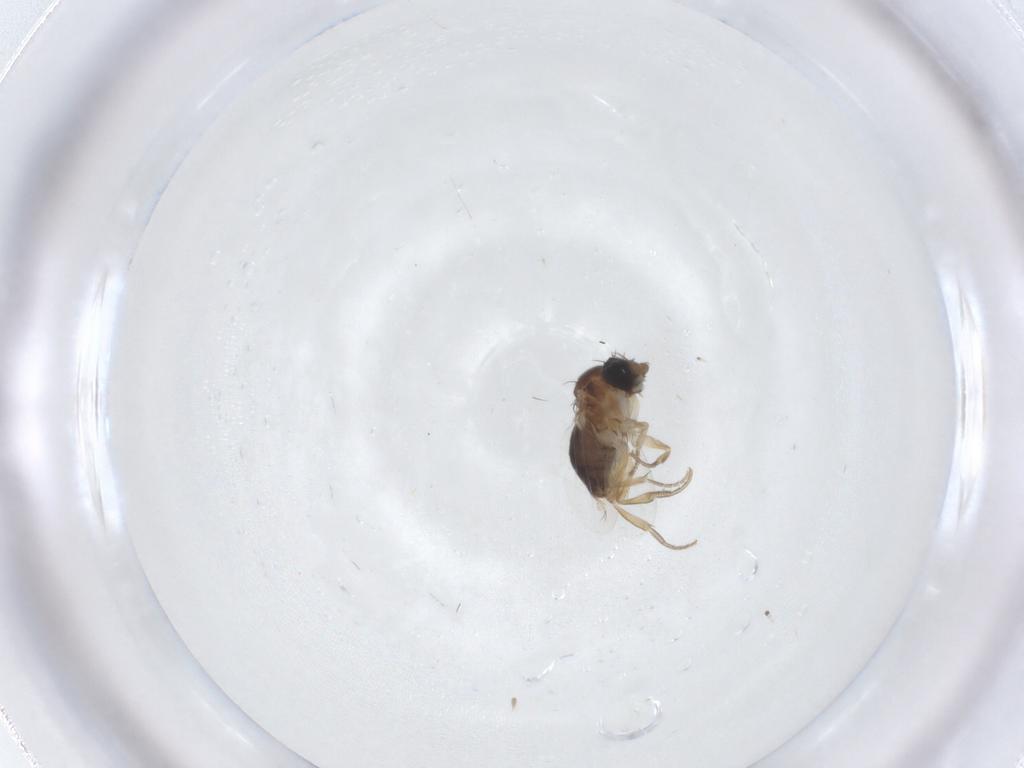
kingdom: Animalia
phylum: Arthropoda
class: Insecta
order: Diptera
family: Phoridae
